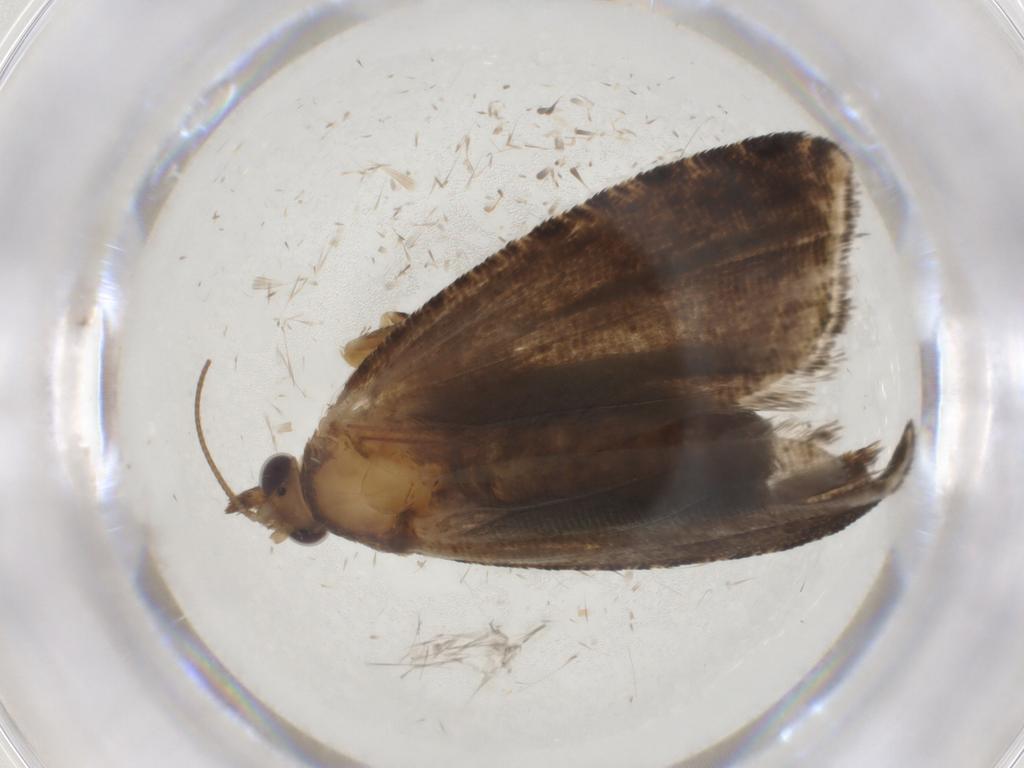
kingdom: Animalia
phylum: Arthropoda
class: Insecta
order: Lepidoptera
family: Tortricidae
